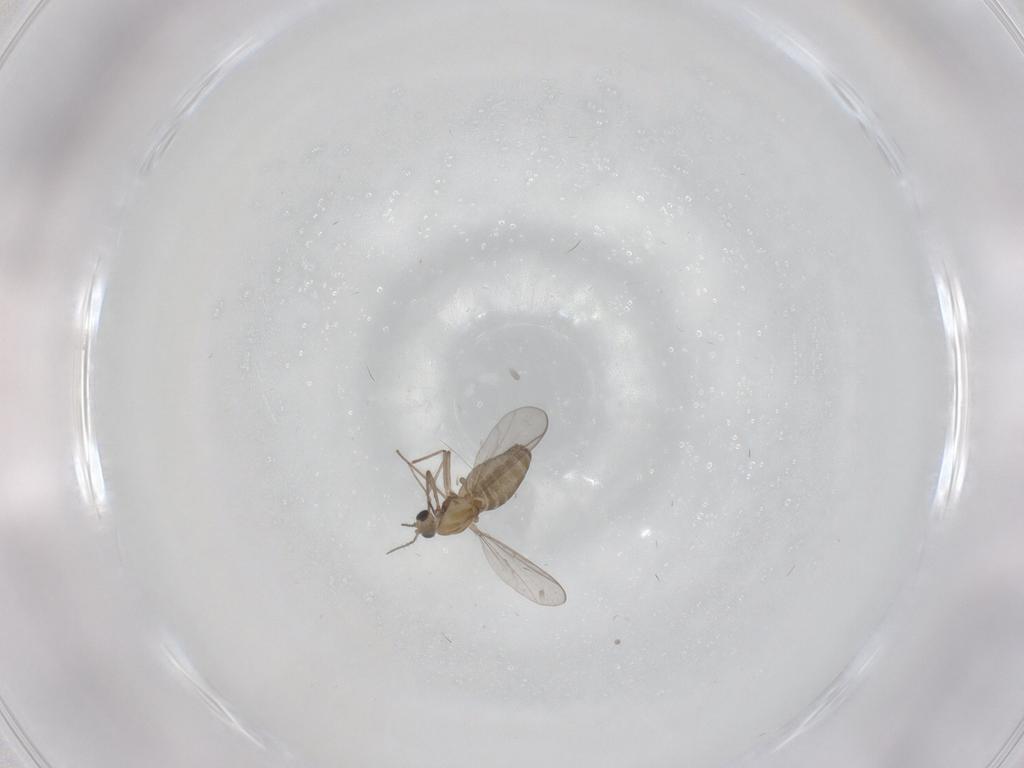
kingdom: Animalia
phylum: Arthropoda
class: Insecta
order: Diptera
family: Chironomidae
